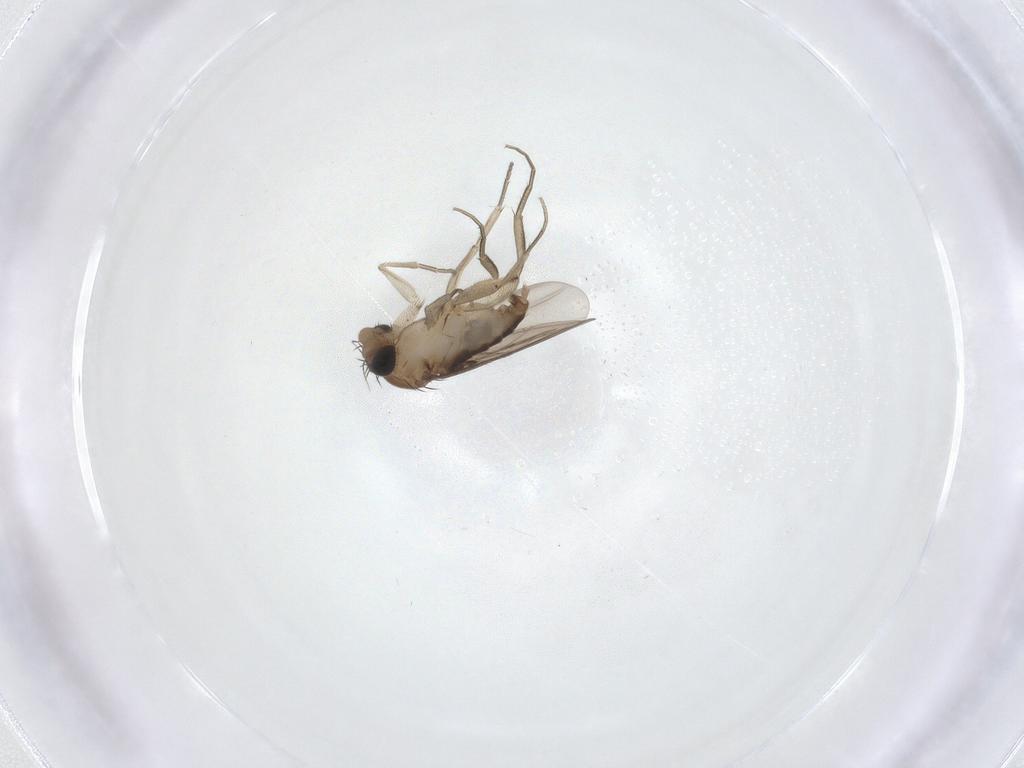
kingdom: Animalia
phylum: Arthropoda
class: Insecta
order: Diptera
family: Phoridae
